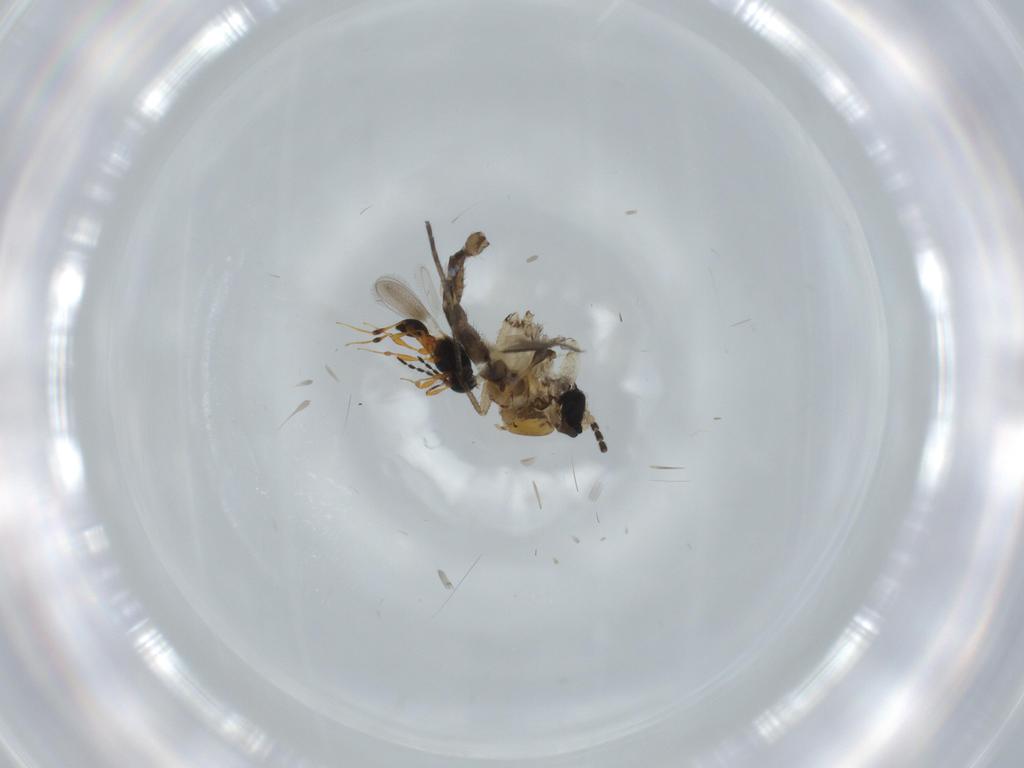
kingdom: Animalia
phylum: Arthropoda
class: Insecta
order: Diptera
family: Sciaridae
